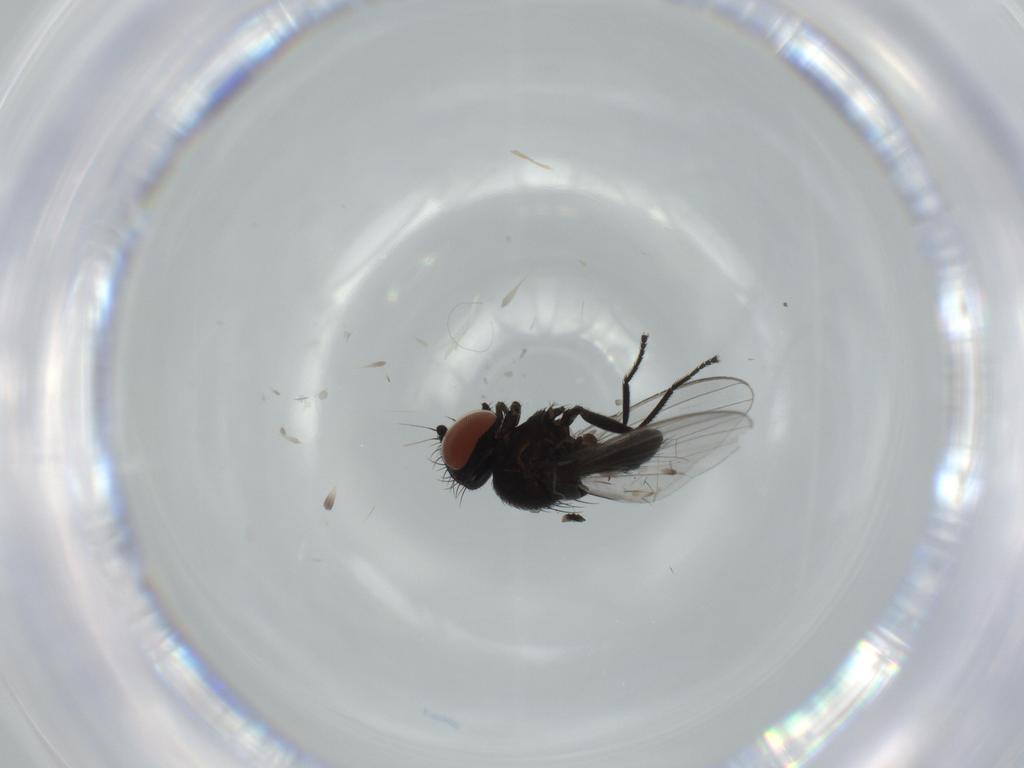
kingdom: Animalia
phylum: Arthropoda
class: Insecta
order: Diptera
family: Milichiidae
